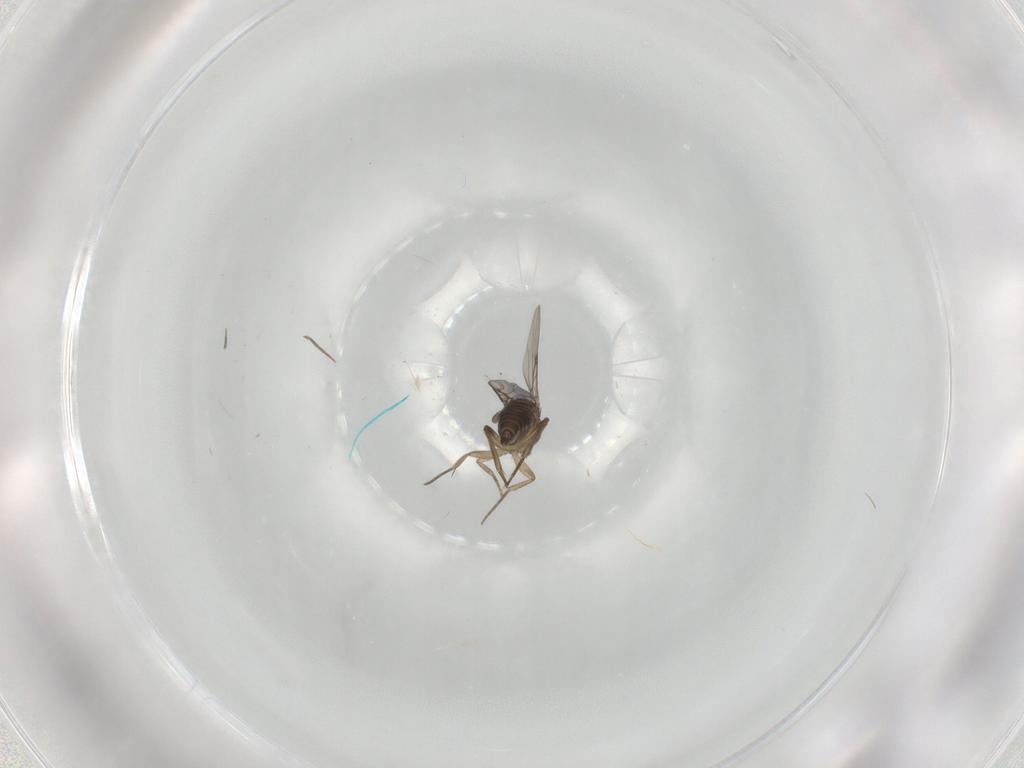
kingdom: Animalia
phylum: Arthropoda
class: Insecta
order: Diptera
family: Phoridae
